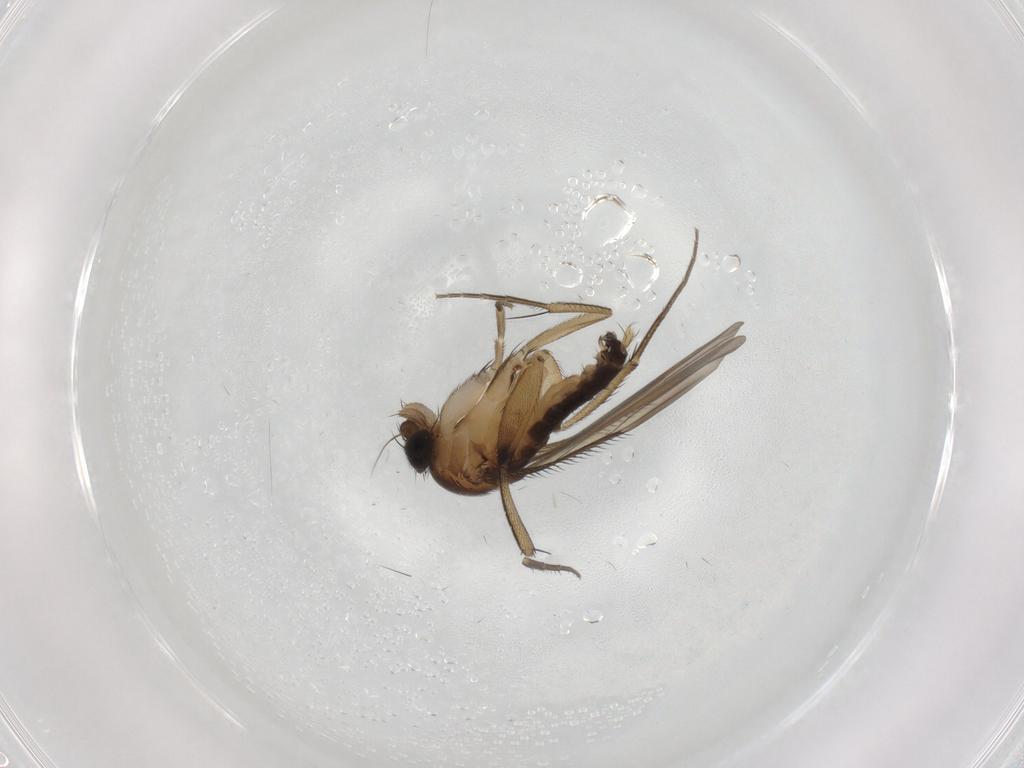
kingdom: Animalia
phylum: Arthropoda
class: Insecta
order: Diptera
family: Phoridae
